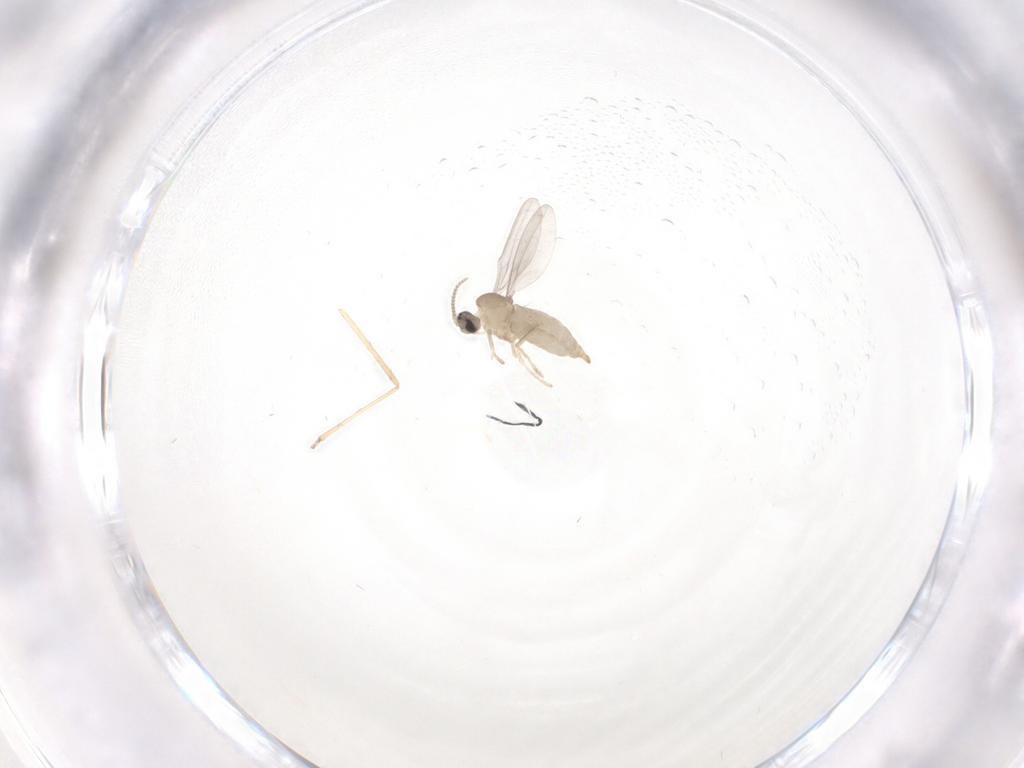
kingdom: Animalia
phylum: Arthropoda
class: Insecta
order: Diptera
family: Cecidomyiidae
